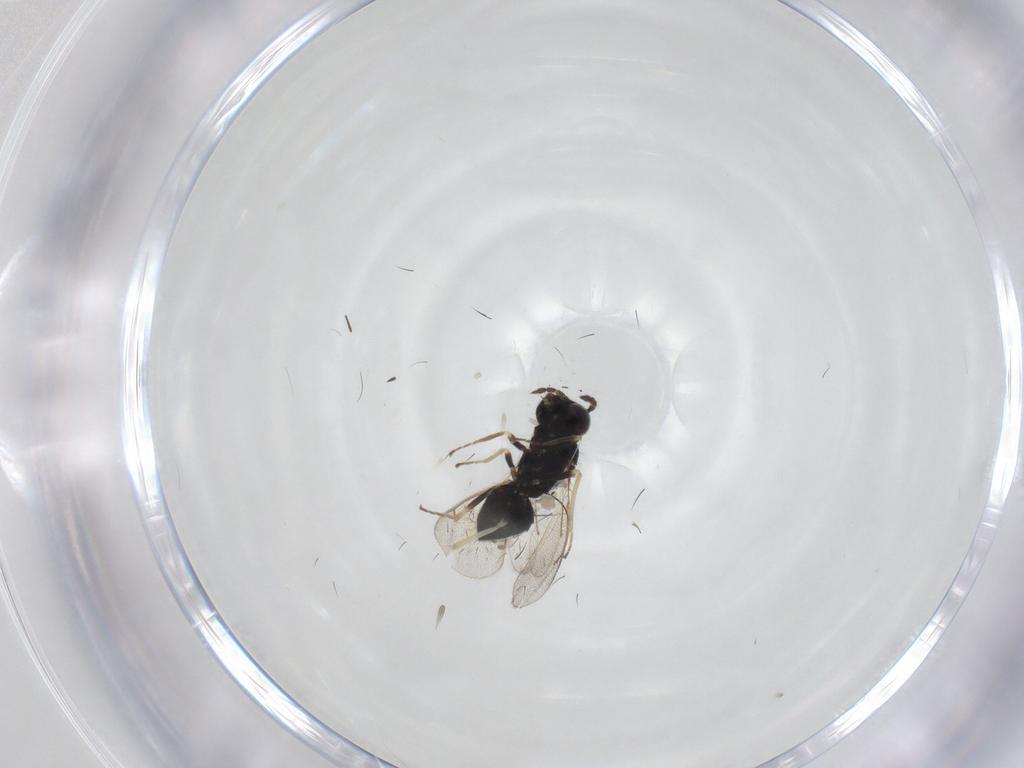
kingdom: Animalia
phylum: Arthropoda
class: Insecta
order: Hymenoptera
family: Eulophidae
